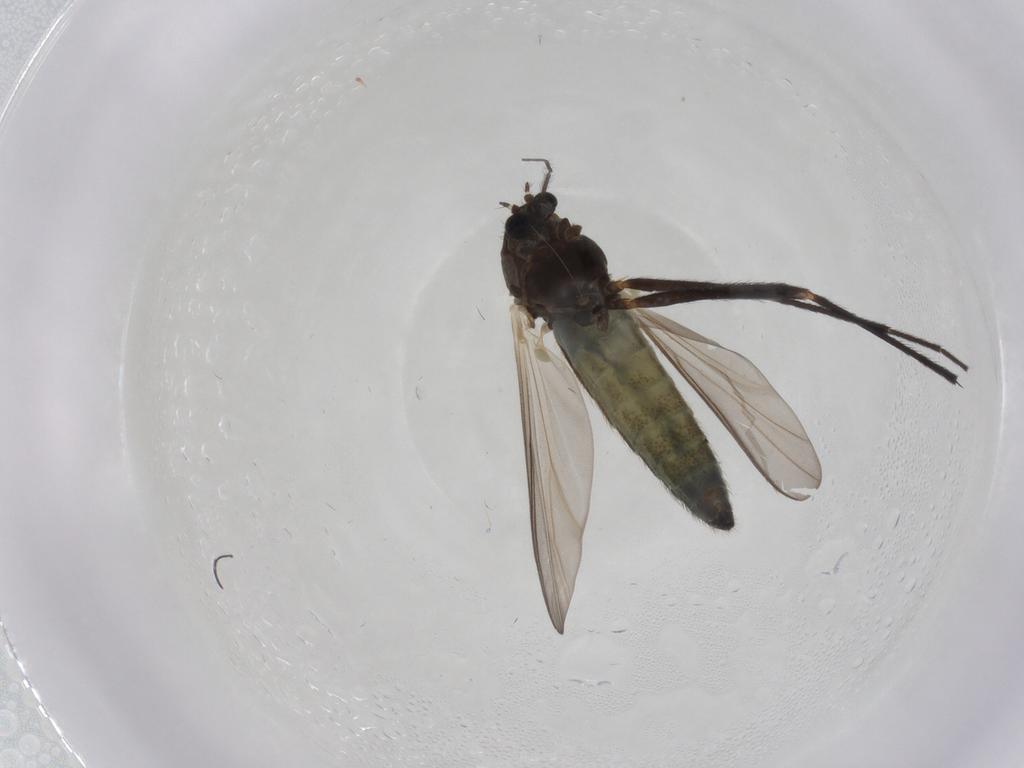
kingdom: Animalia
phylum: Arthropoda
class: Insecta
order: Diptera
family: Chironomidae
